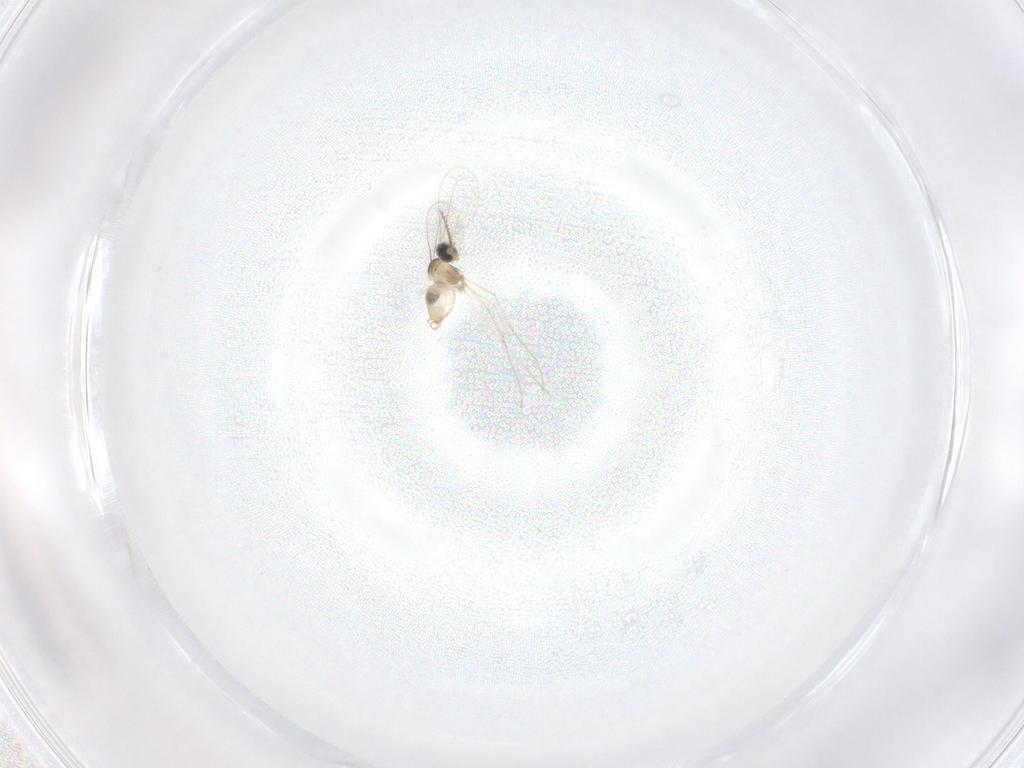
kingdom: Animalia
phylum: Arthropoda
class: Insecta
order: Diptera
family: Cecidomyiidae
